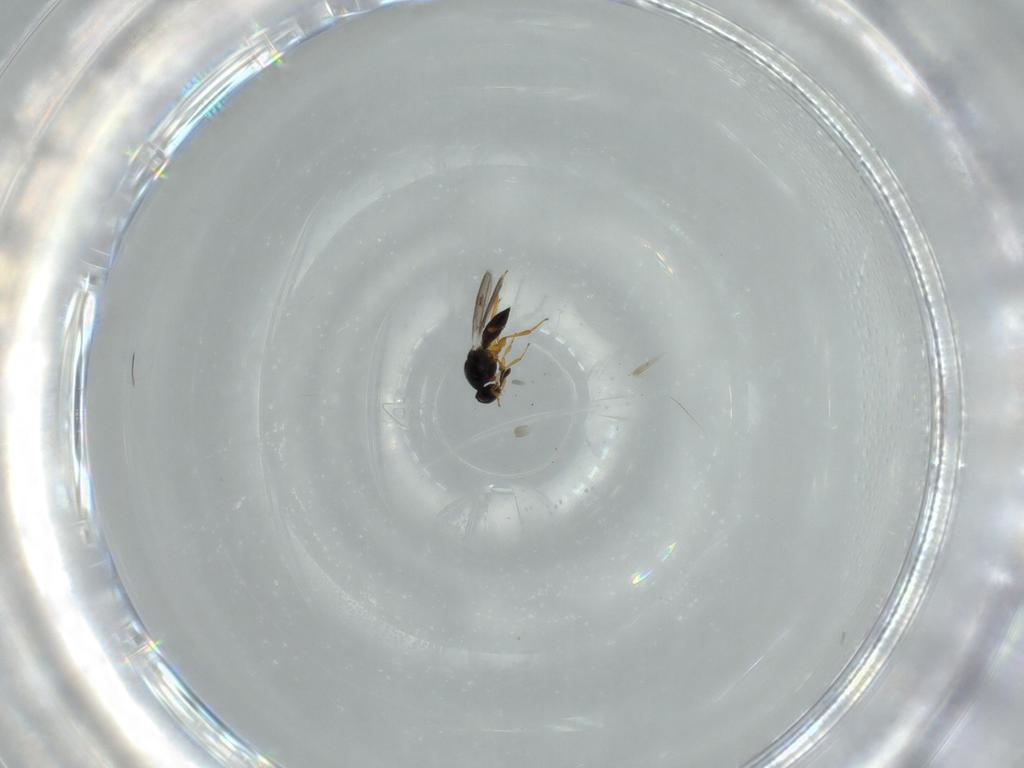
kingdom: Animalia
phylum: Arthropoda
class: Insecta
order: Hymenoptera
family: Platygastridae
